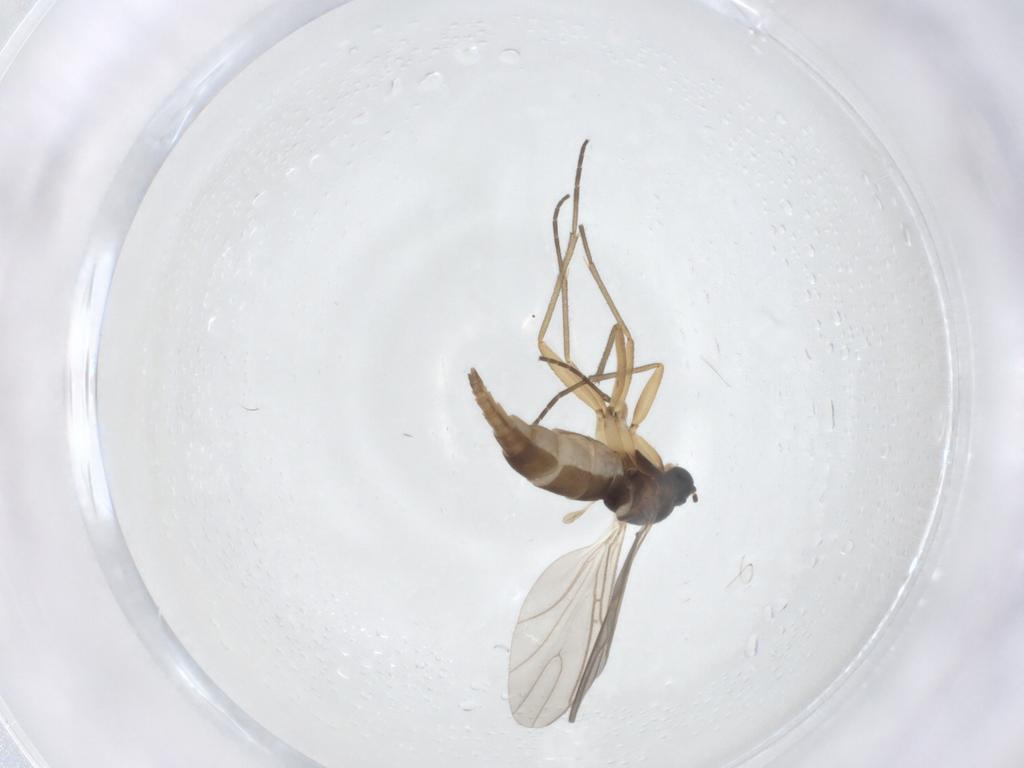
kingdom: Animalia
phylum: Arthropoda
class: Insecta
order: Diptera
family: Sciaridae
